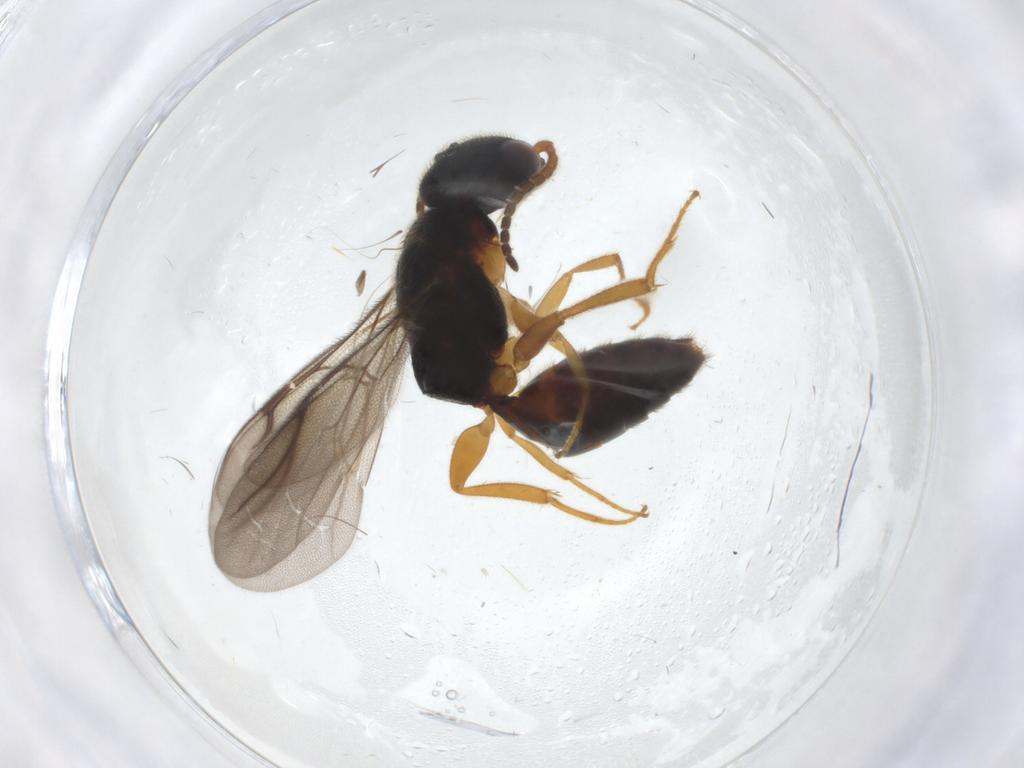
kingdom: Animalia
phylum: Arthropoda
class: Insecta
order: Hymenoptera
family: Bethylidae
